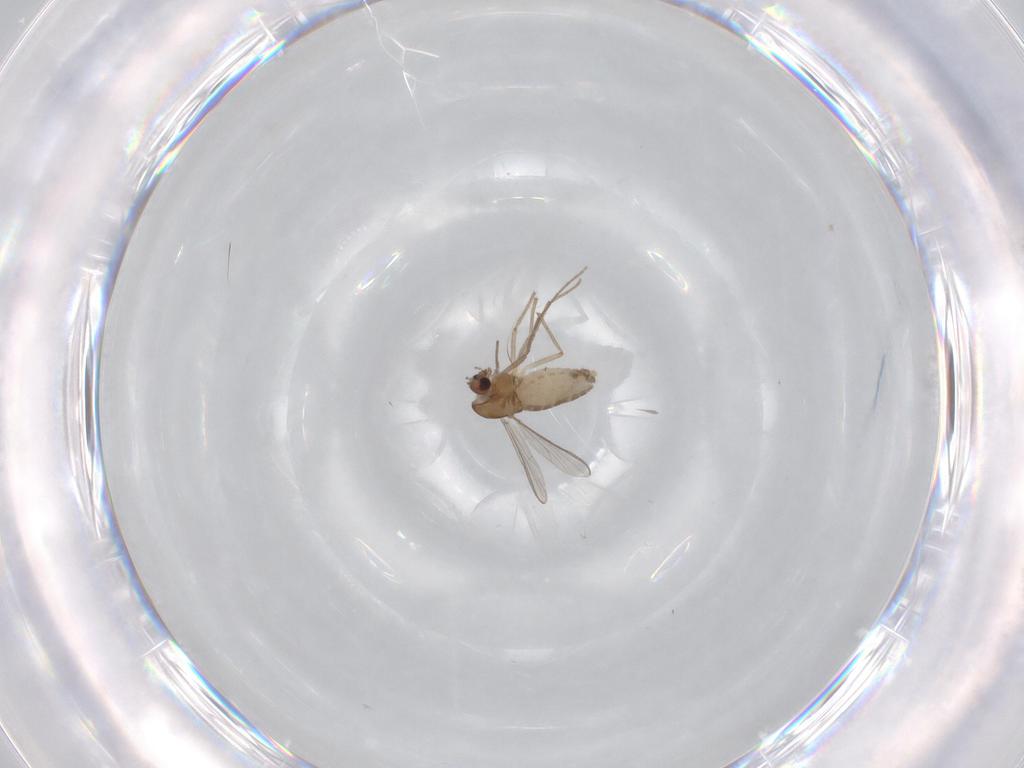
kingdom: Animalia
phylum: Arthropoda
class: Insecta
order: Diptera
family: Chironomidae
